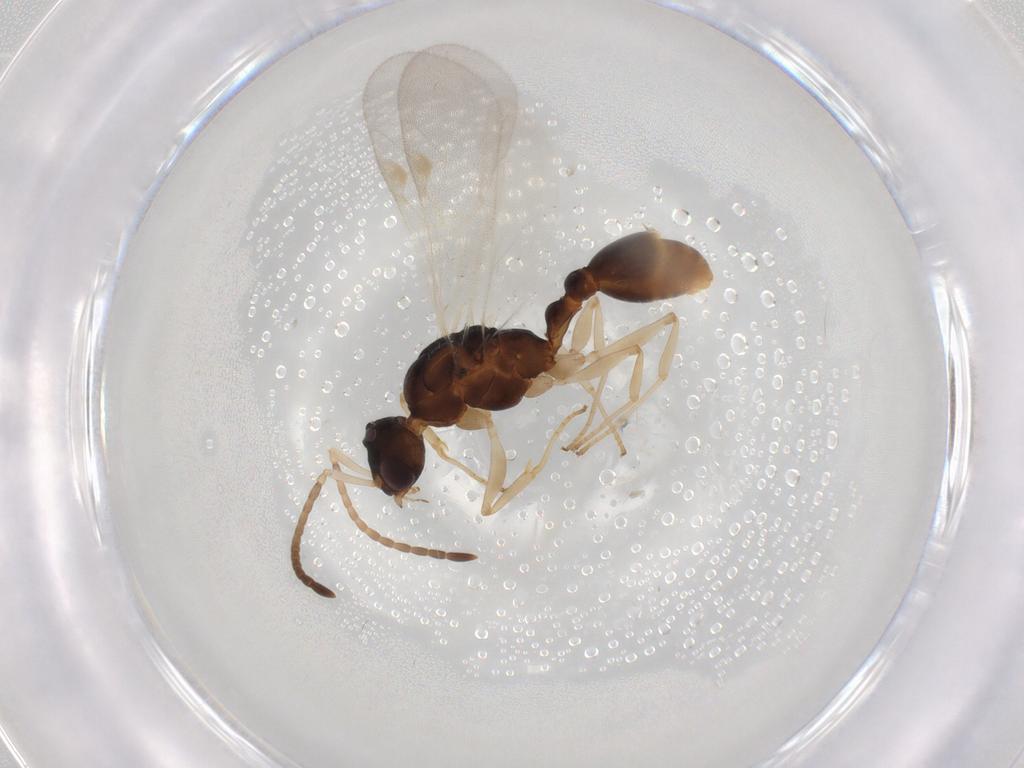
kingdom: Animalia
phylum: Arthropoda
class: Insecta
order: Hymenoptera
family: Formicidae
